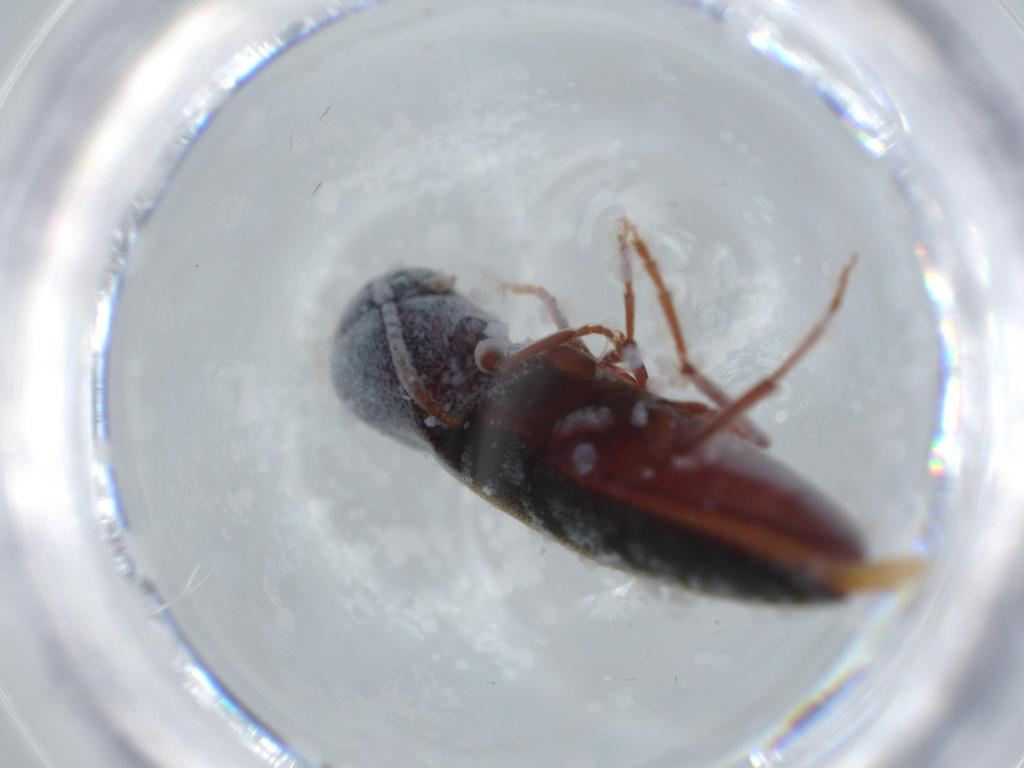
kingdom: Animalia
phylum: Arthropoda
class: Insecta
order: Coleoptera
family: Eucnemidae
